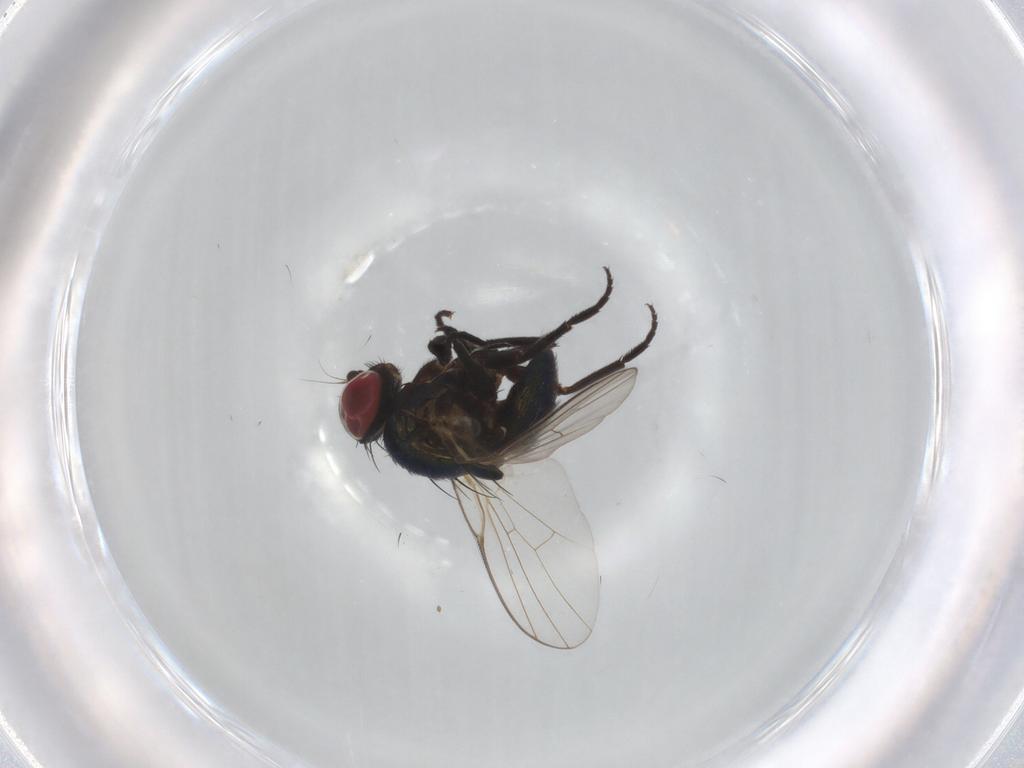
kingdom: Animalia
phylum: Arthropoda
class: Insecta
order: Diptera
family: Agromyzidae
